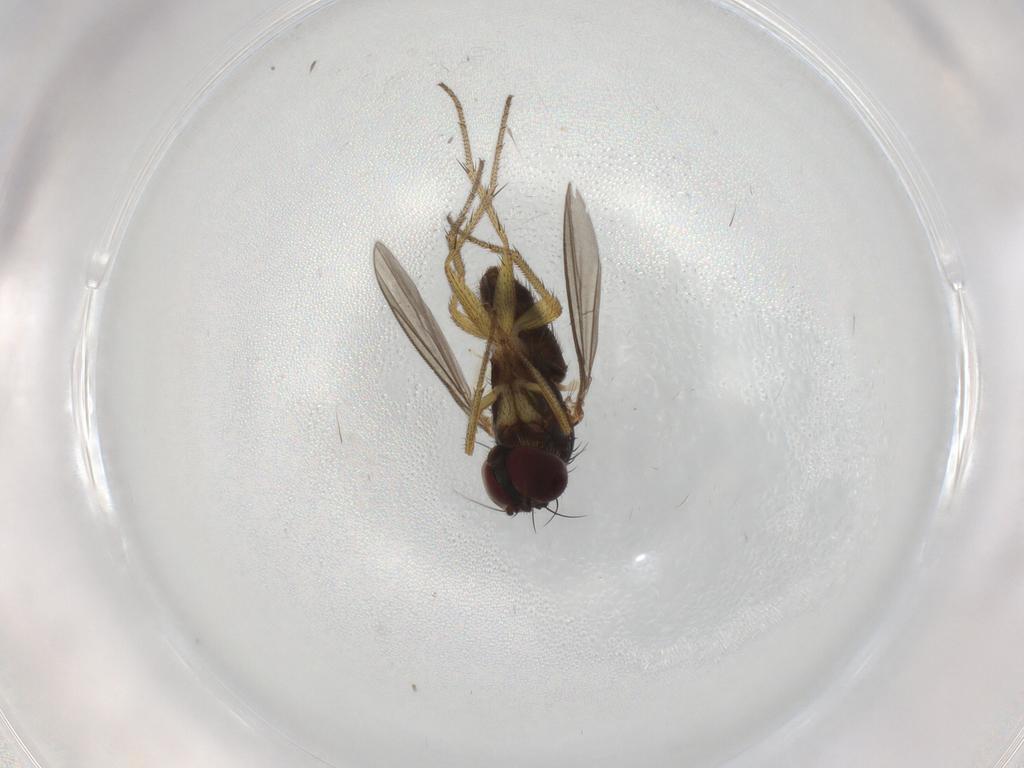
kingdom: Animalia
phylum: Arthropoda
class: Insecta
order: Diptera
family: Chironomidae
